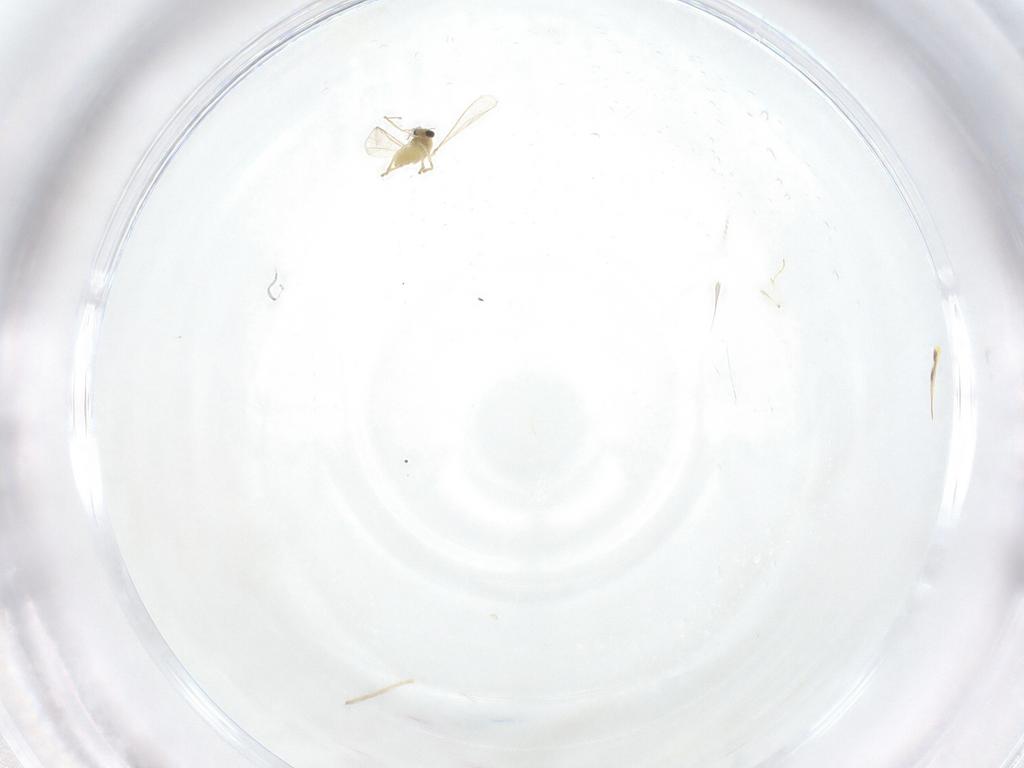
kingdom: Animalia
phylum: Arthropoda
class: Insecta
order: Diptera
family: Chironomidae
